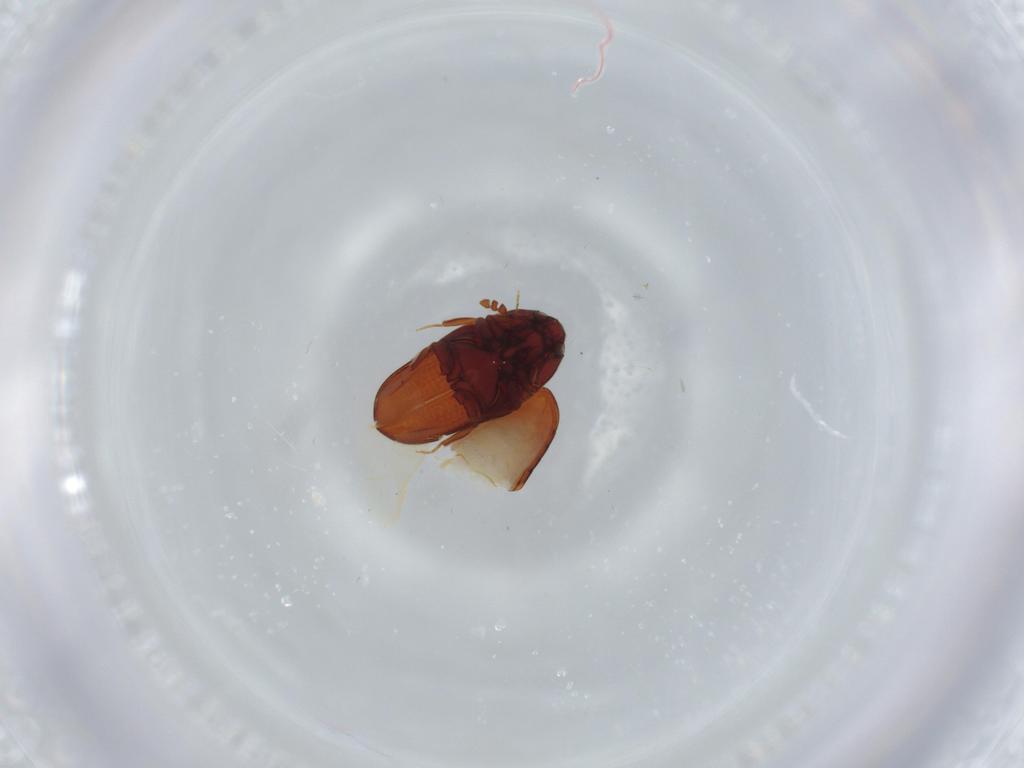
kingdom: Animalia
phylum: Arthropoda
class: Insecta
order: Coleoptera
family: Throscidae
